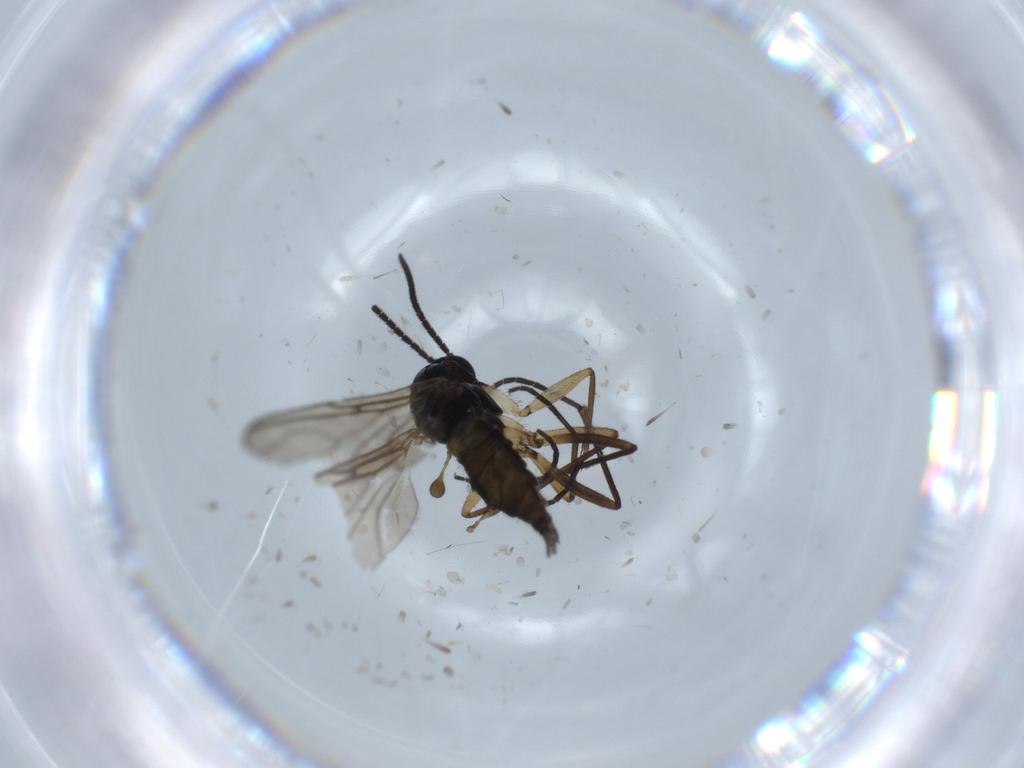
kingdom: Animalia
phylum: Arthropoda
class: Insecta
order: Diptera
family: Sciaridae
